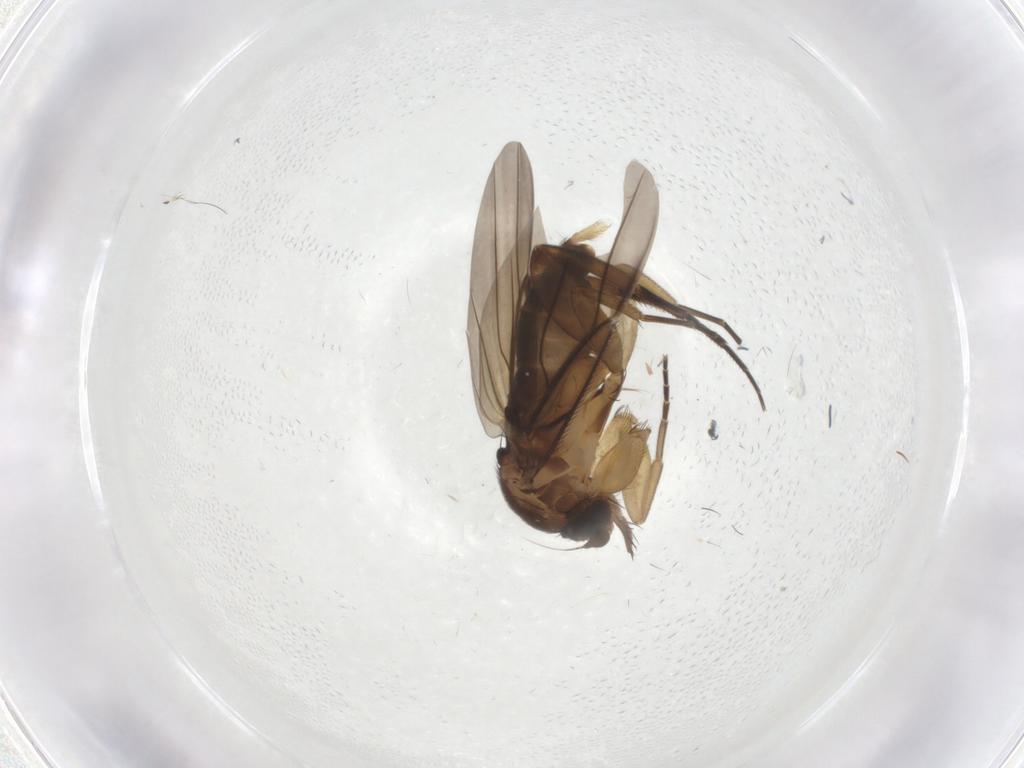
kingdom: Animalia
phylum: Arthropoda
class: Insecta
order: Diptera
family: Phoridae
